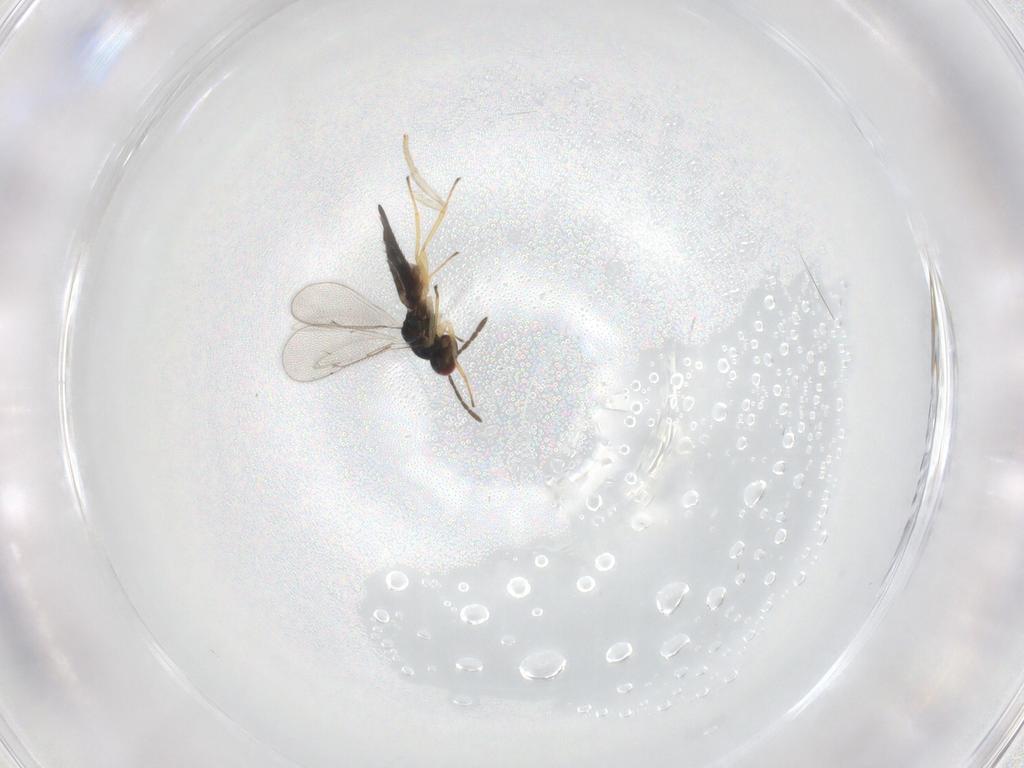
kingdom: Animalia
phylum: Arthropoda
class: Insecta
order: Hymenoptera
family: Eulophidae
